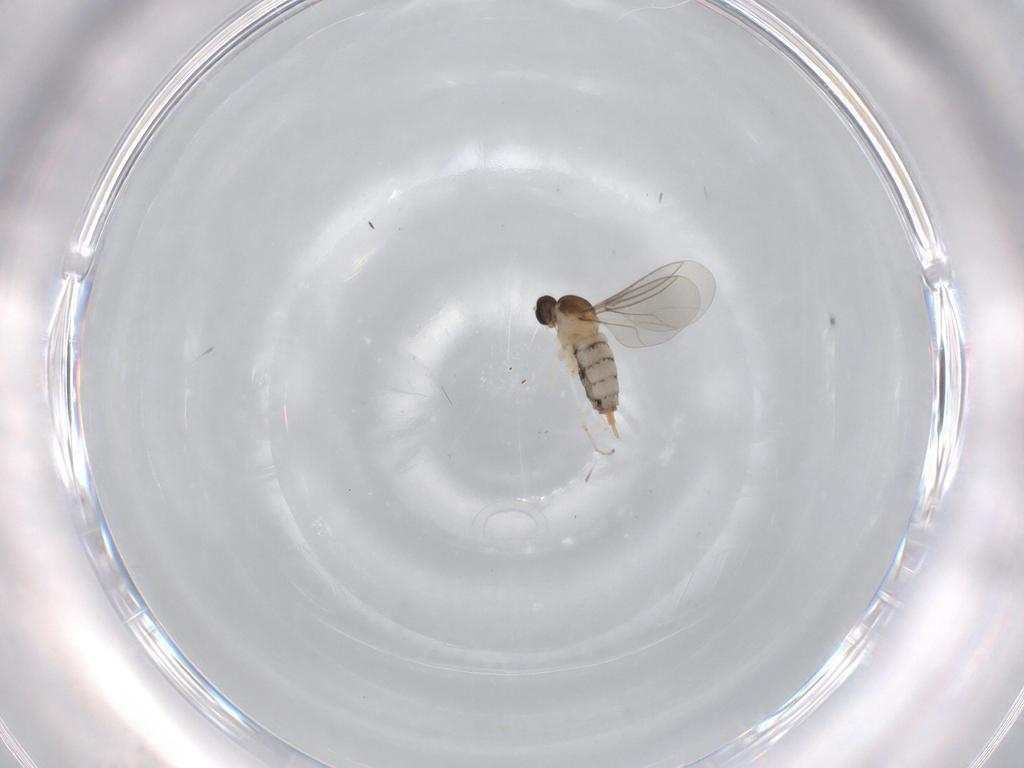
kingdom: Animalia
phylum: Arthropoda
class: Insecta
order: Diptera
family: Cecidomyiidae
